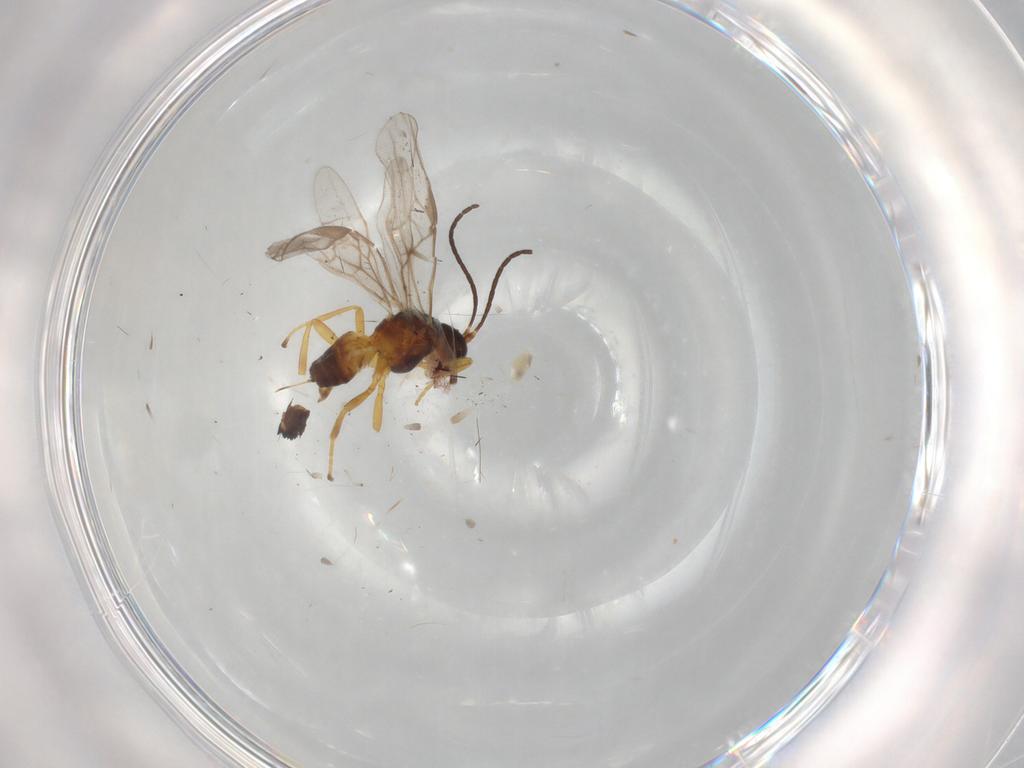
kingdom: Animalia
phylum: Arthropoda
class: Insecta
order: Hymenoptera
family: Braconidae
